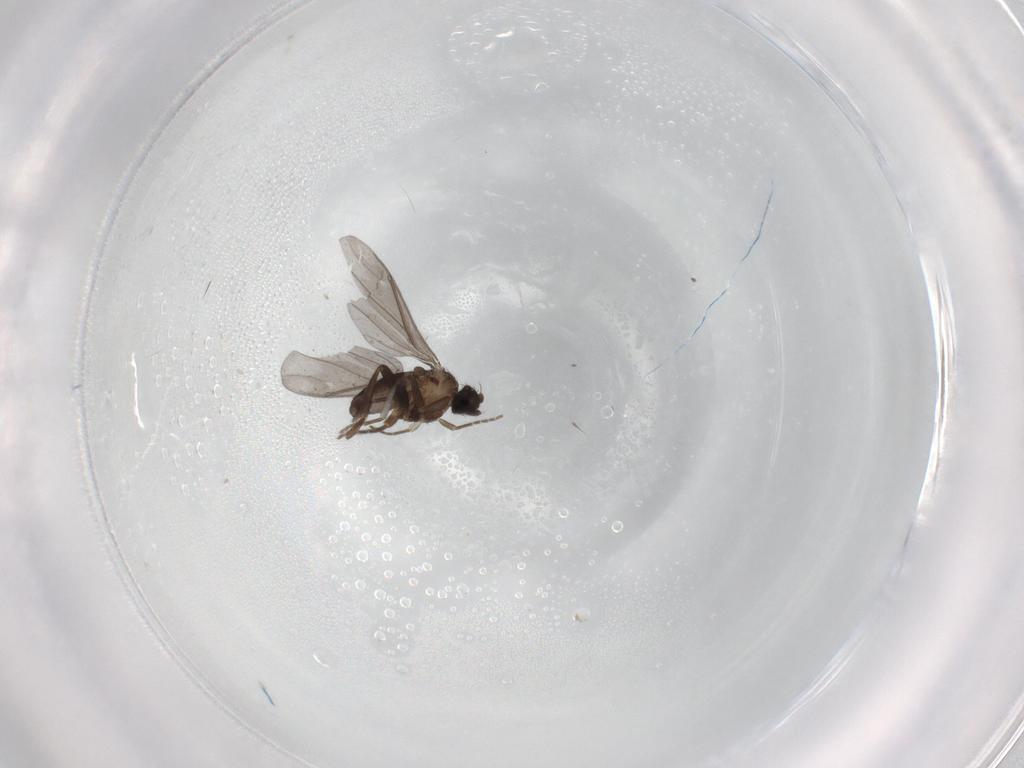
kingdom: Animalia
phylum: Arthropoda
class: Insecta
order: Diptera
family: Phoridae
